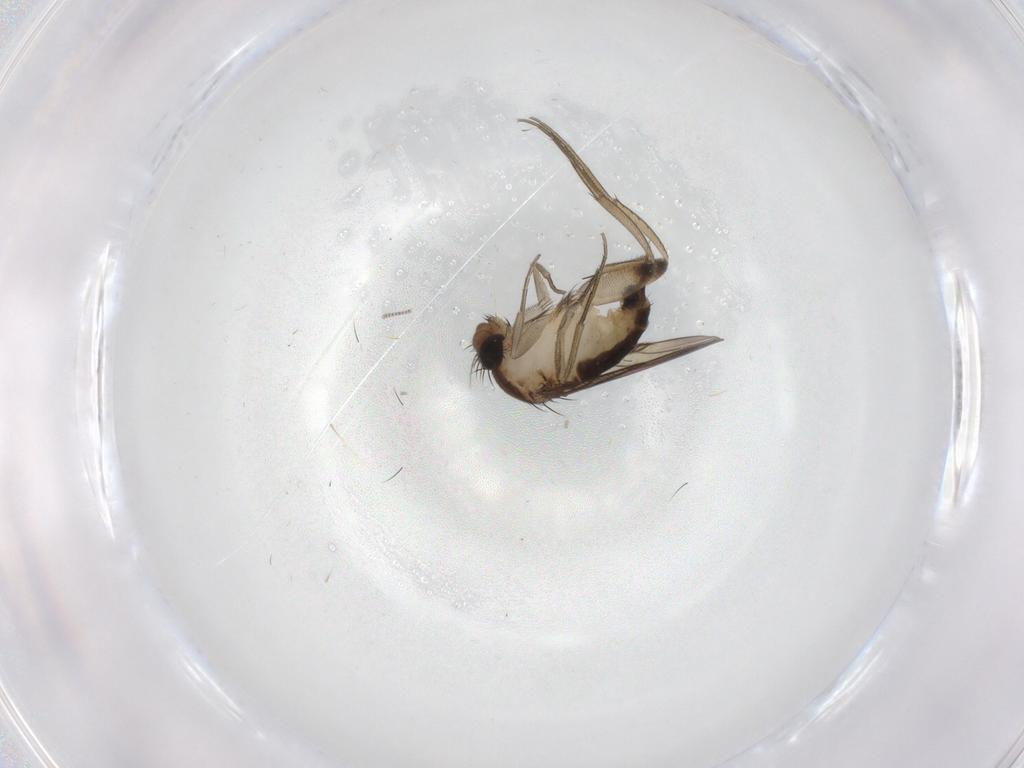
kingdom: Animalia
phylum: Arthropoda
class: Insecta
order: Diptera
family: Phoridae
